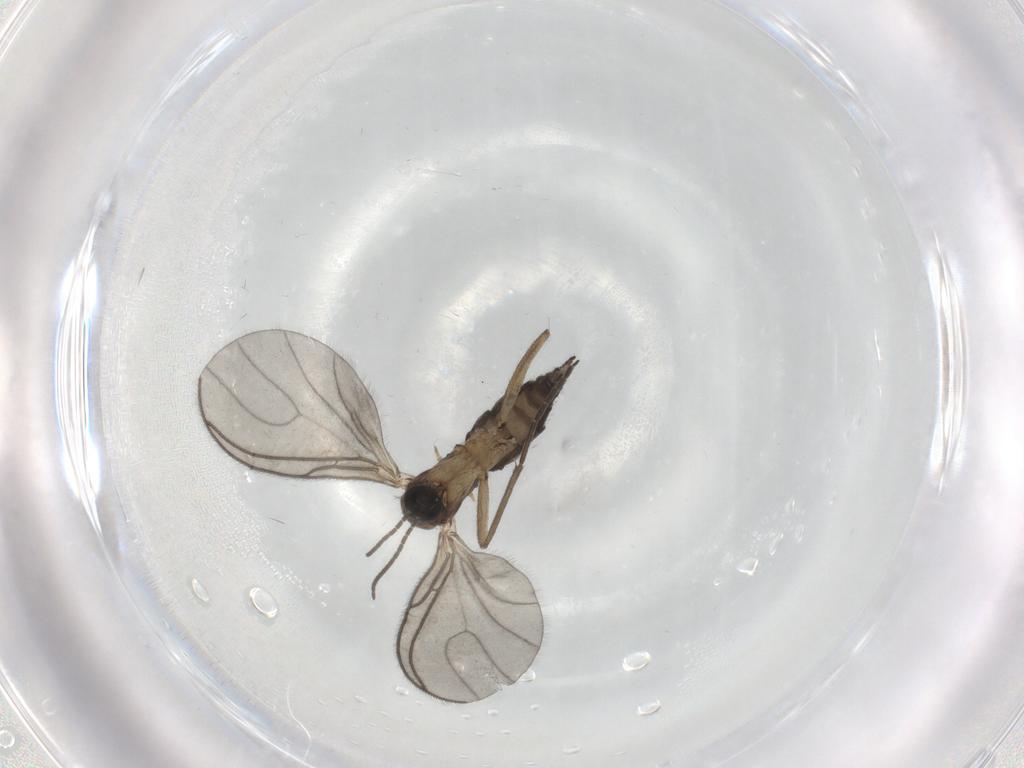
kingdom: Animalia
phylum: Arthropoda
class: Insecta
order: Diptera
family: Sciaridae
